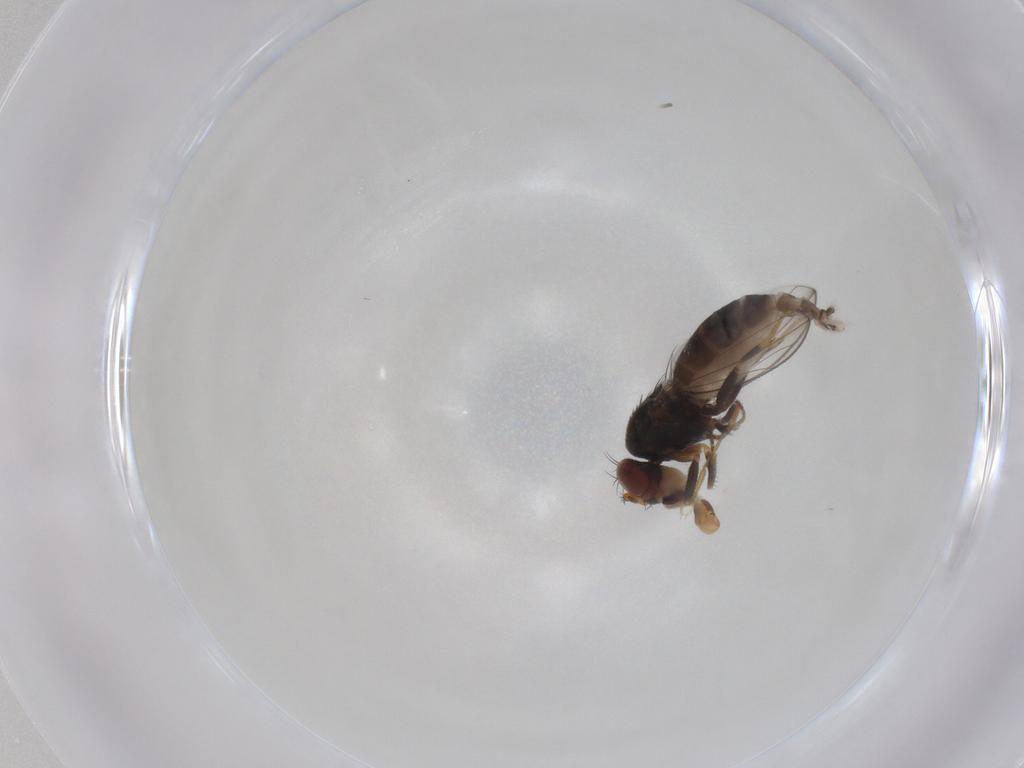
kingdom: Animalia
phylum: Arthropoda
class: Insecta
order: Diptera
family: Ephydridae
